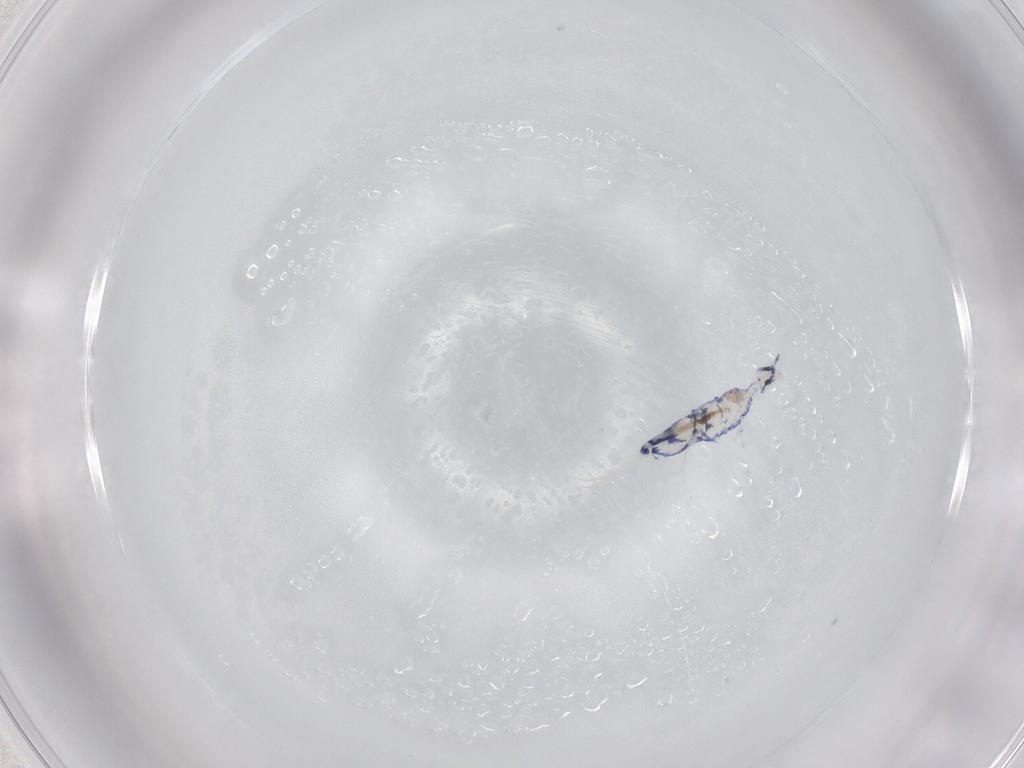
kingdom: Animalia
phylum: Arthropoda
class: Collembola
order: Entomobryomorpha
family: Entomobryidae
